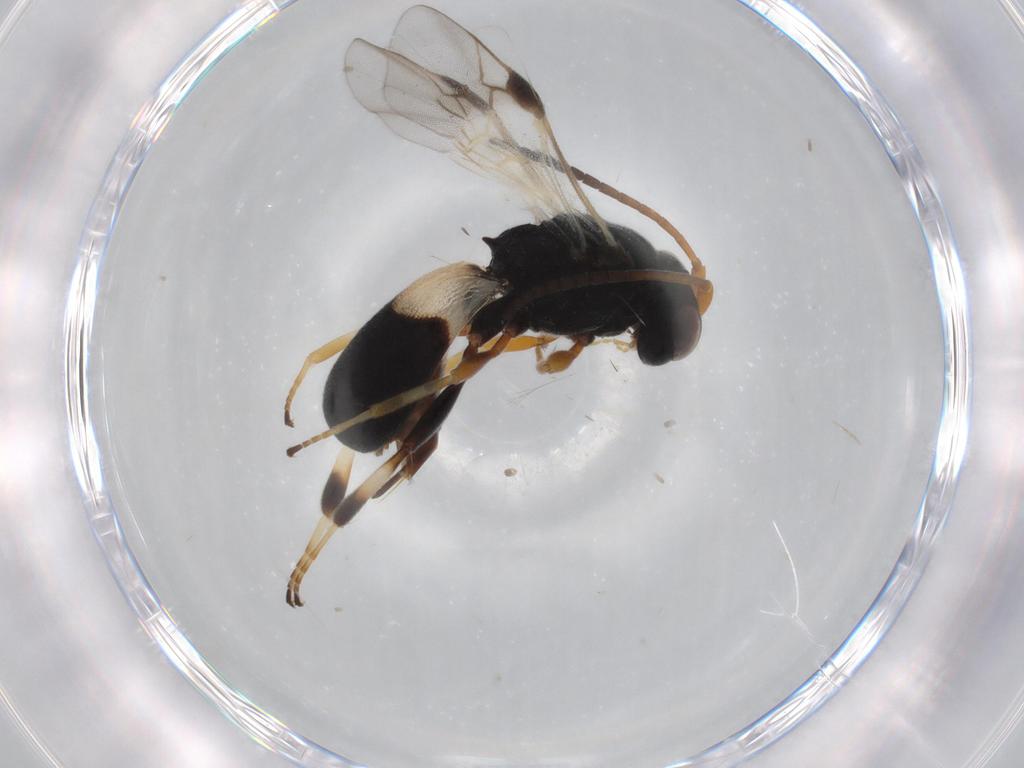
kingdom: Animalia
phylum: Arthropoda
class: Insecta
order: Hymenoptera
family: Braconidae
